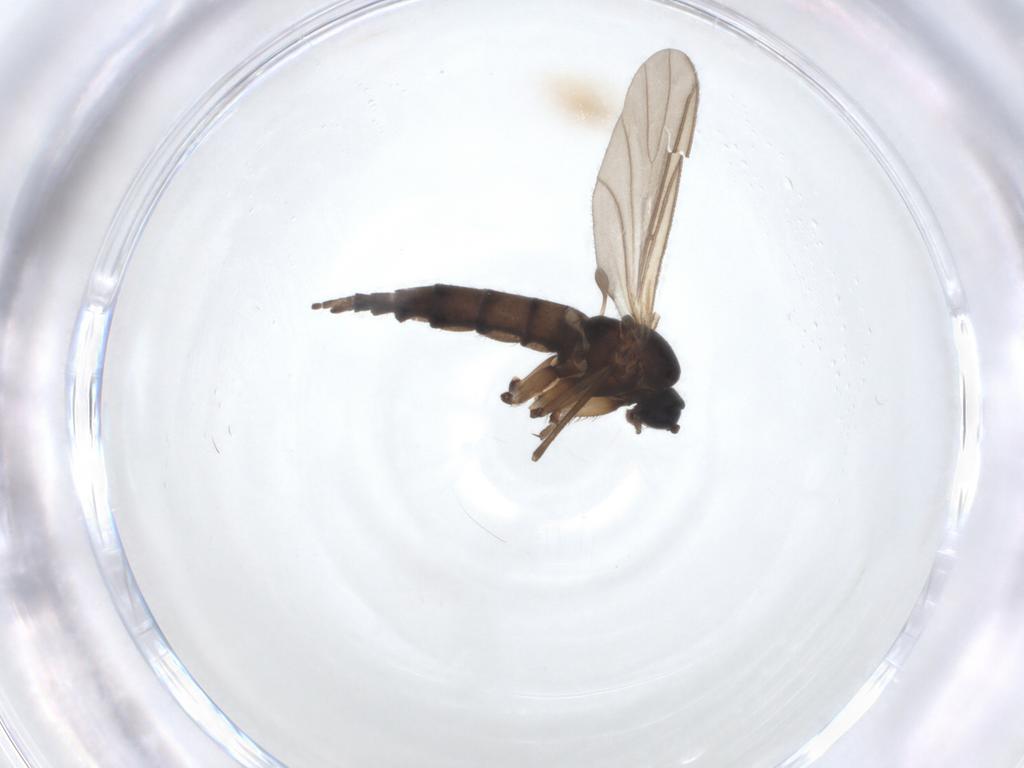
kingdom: Animalia
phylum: Arthropoda
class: Insecta
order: Diptera
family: Sciaridae
